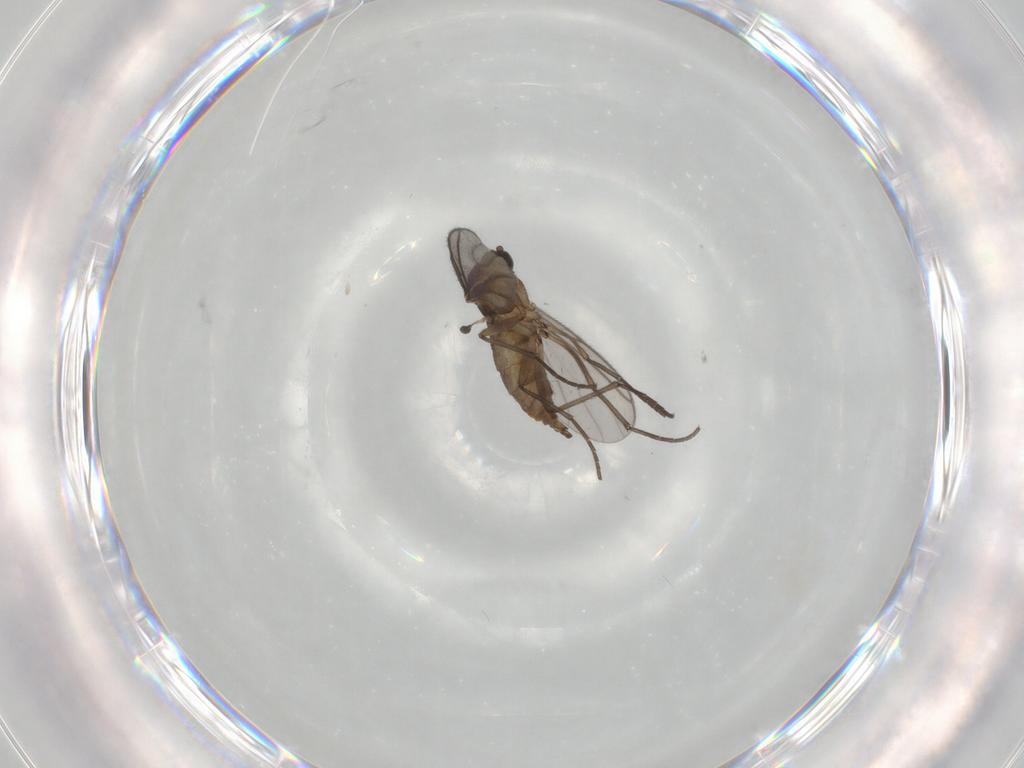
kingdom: Animalia
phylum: Arthropoda
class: Insecta
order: Diptera
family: Sciaridae
